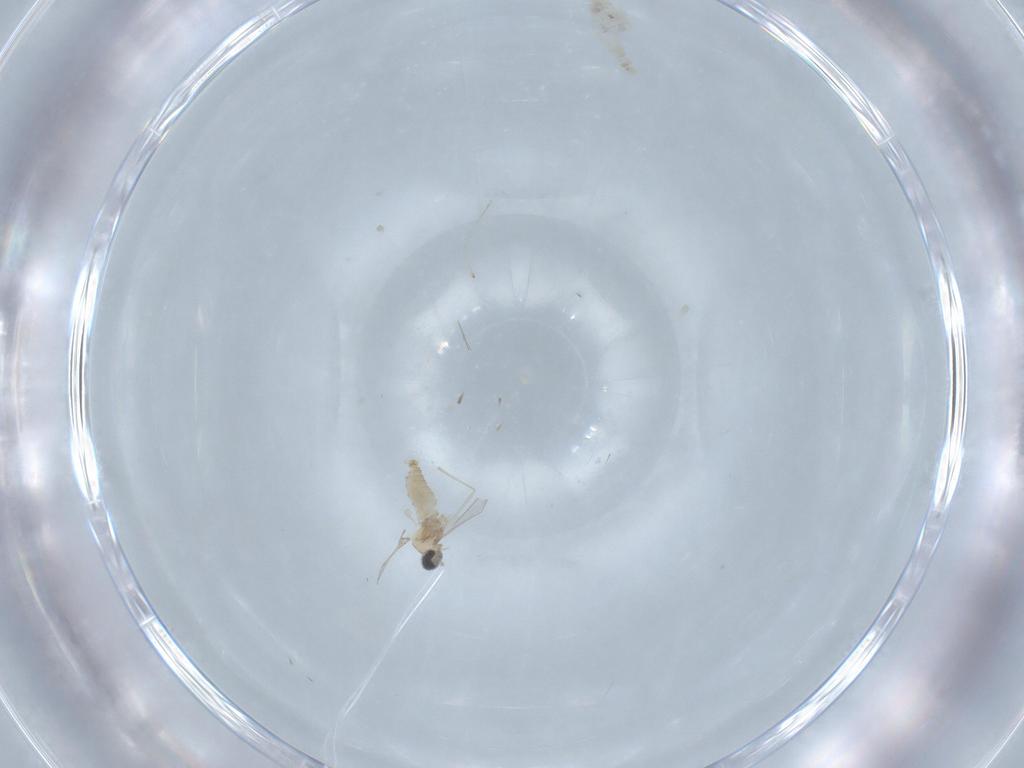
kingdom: Animalia
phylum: Arthropoda
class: Insecta
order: Diptera
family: Cecidomyiidae
